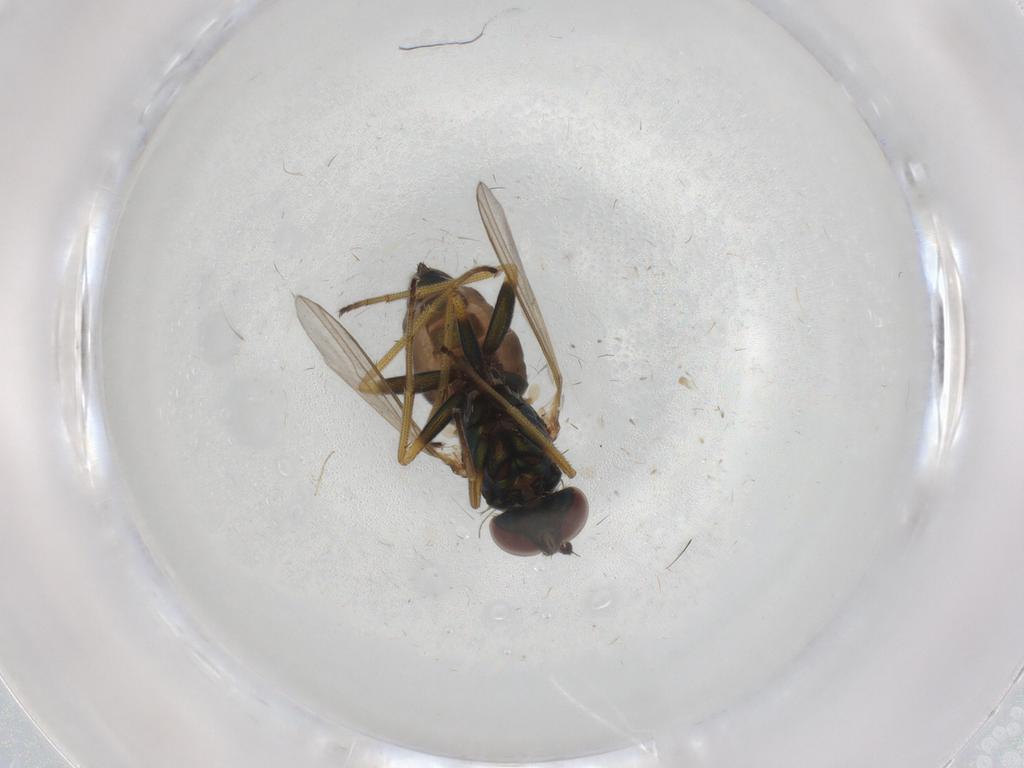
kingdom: Animalia
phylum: Arthropoda
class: Insecta
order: Diptera
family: Dolichopodidae
